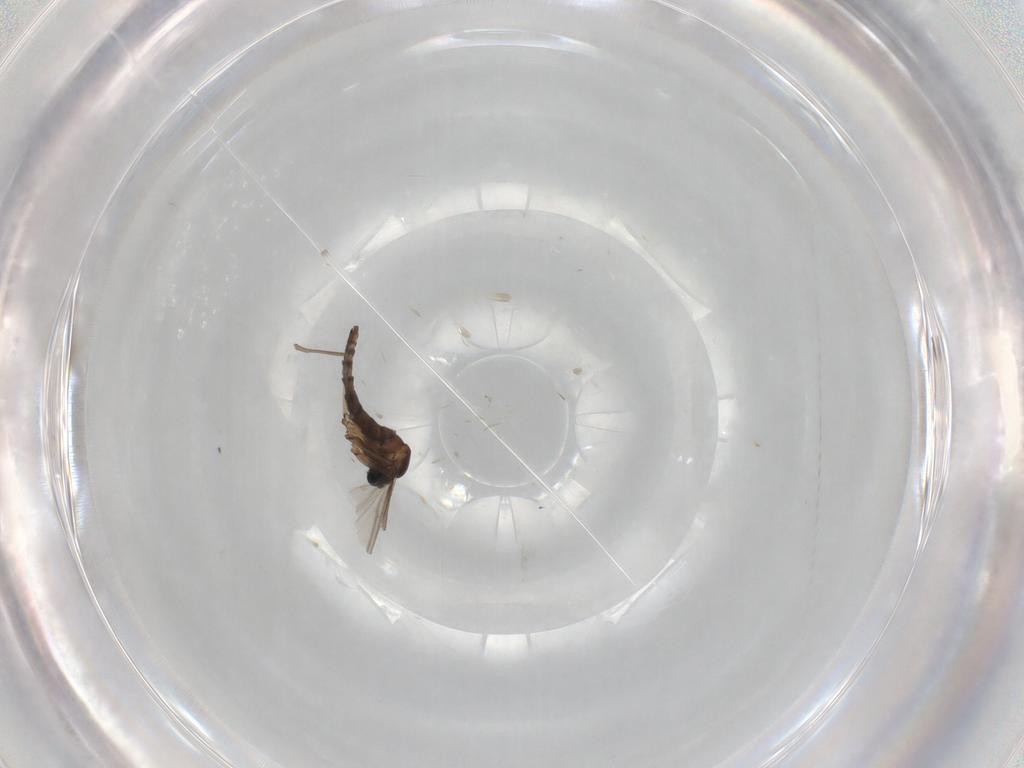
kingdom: Animalia
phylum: Arthropoda
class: Insecta
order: Diptera
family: Sciaridae
